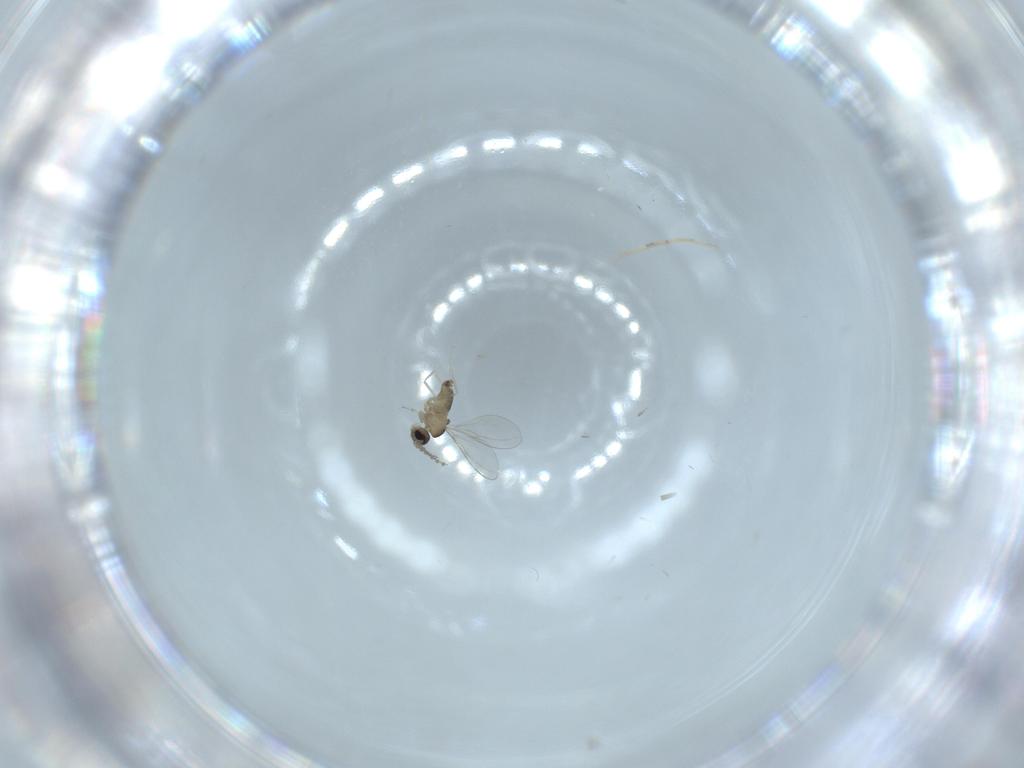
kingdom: Animalia
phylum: Arthropoda
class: Insecta
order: Diptera
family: Cecidomyiidae
